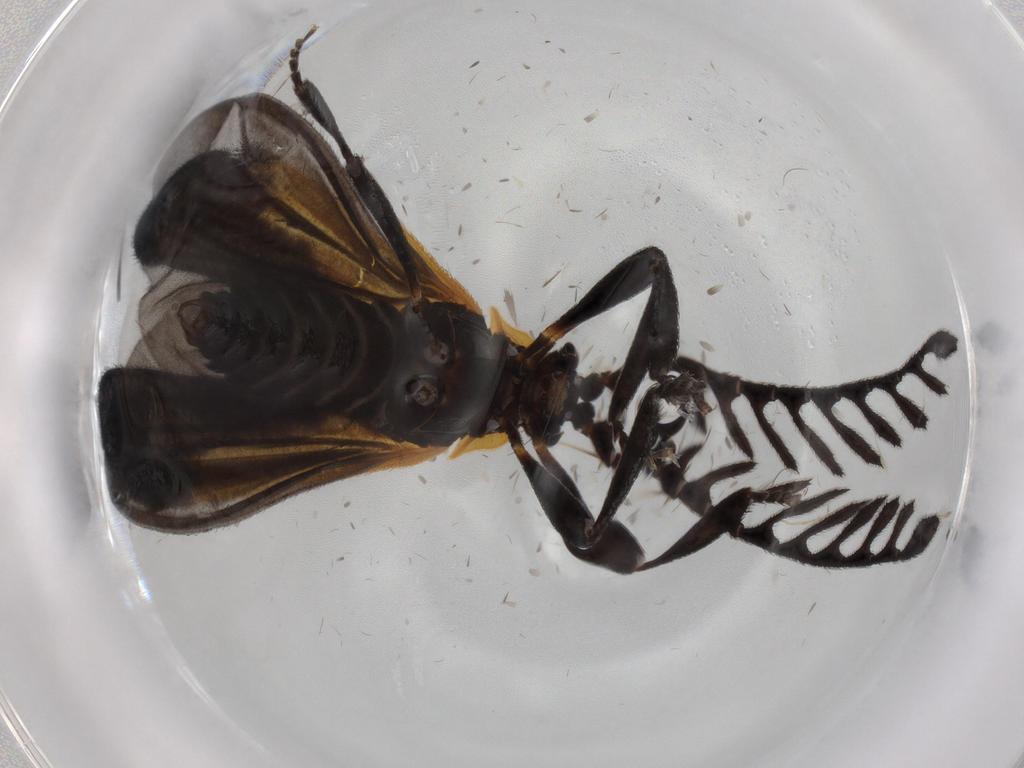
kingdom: Animalia
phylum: Arthropoda
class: Insecta
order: Coleoptera
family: Lycidae
